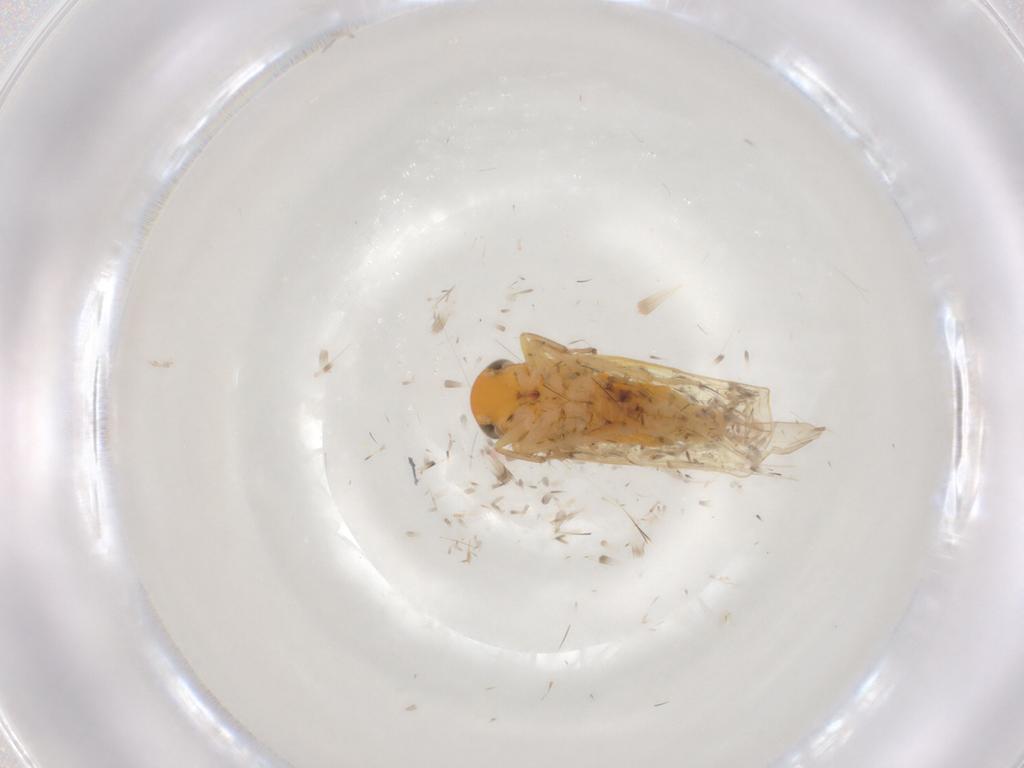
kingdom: Animalia
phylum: Arthropoda
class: Insecta
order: Hemiptera
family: Cicadellidae
